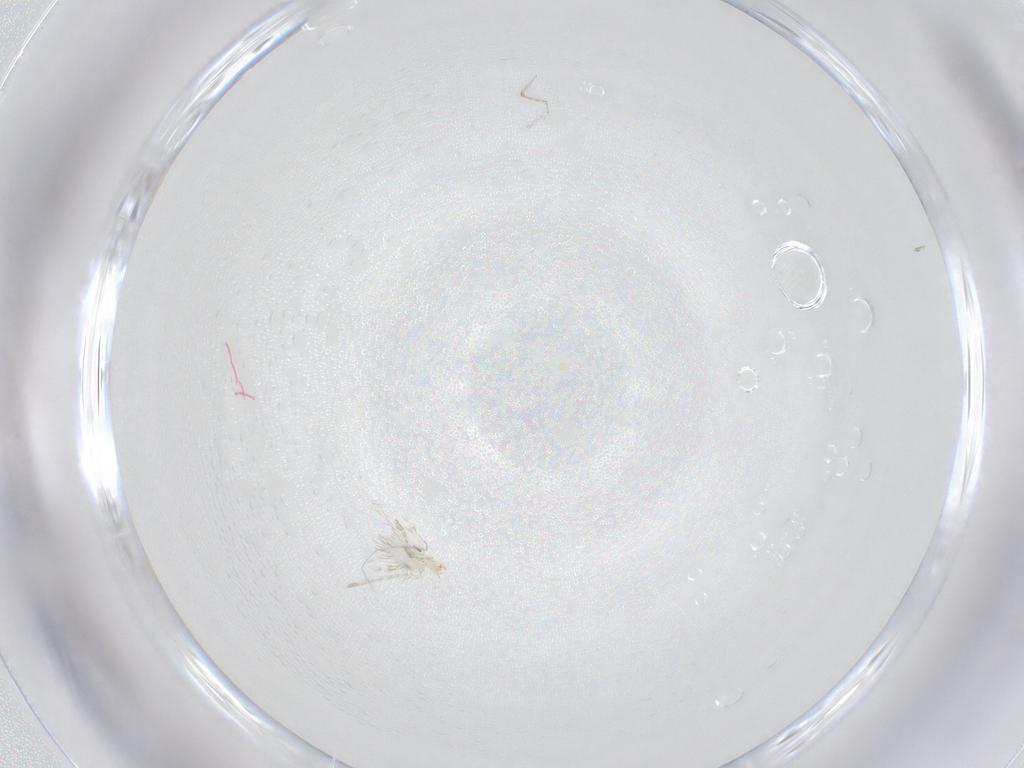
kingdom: Animalia
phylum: Arthropoda
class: Arachnida
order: Trombidiformes
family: Erythraeidae
